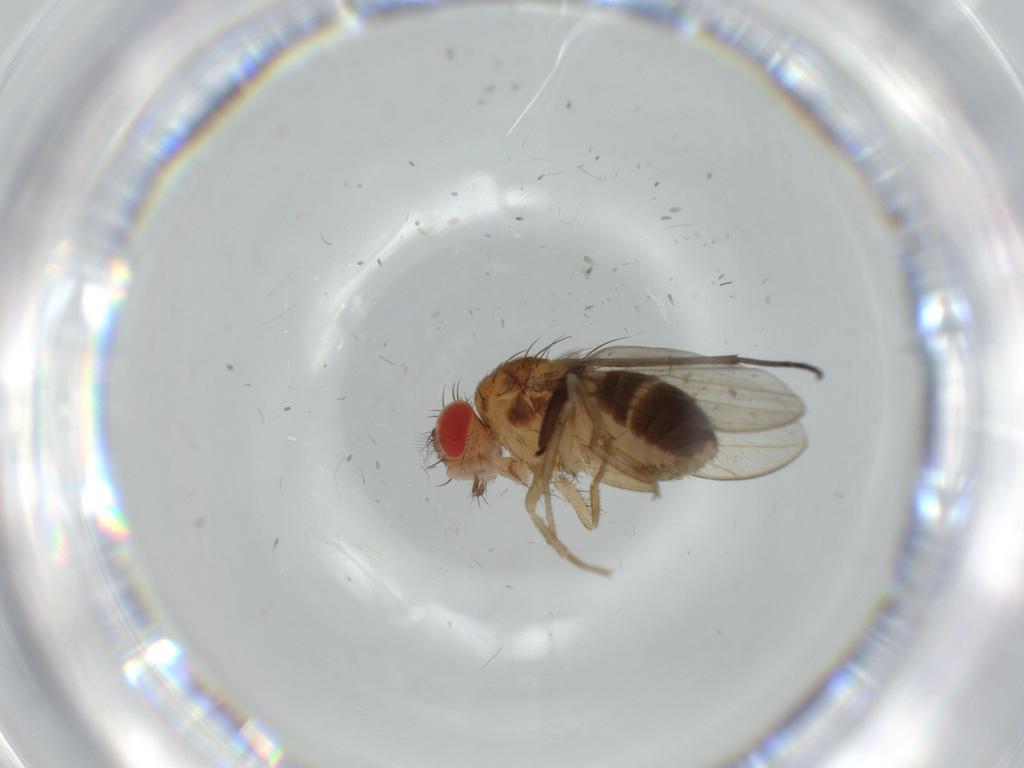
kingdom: Animalia
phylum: Arthropoda
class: Insecta
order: Diptera
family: Drosophilidae
